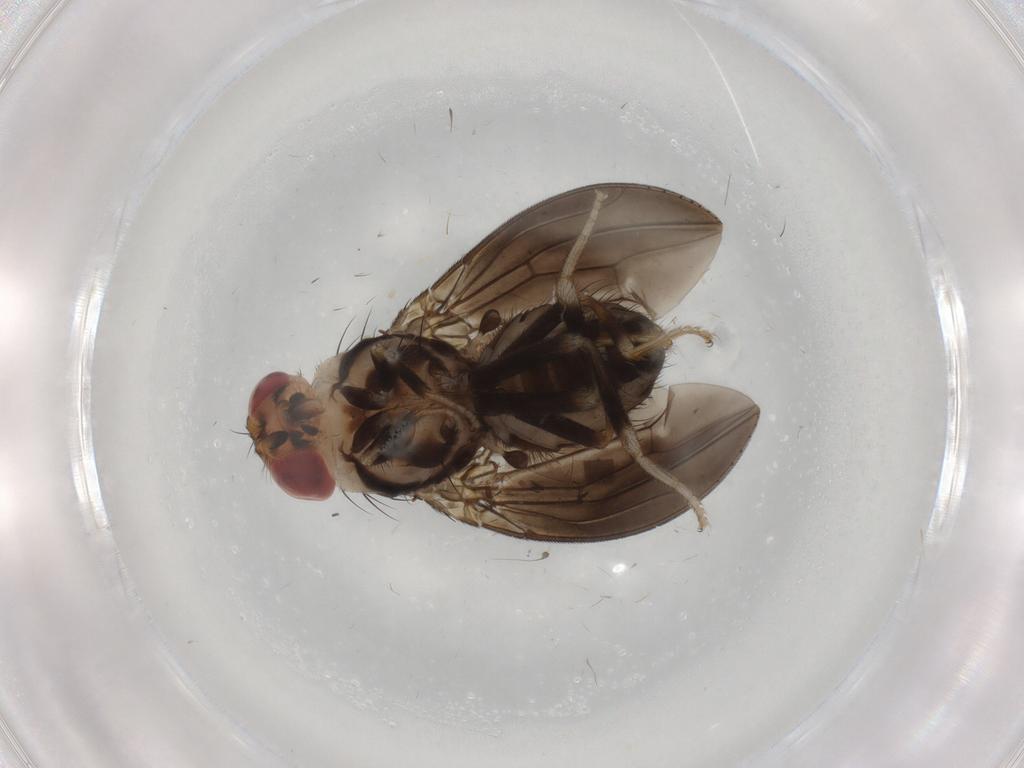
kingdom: Animalia
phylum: Arthropoda
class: Insecta
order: Diptera
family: Hybotidae
